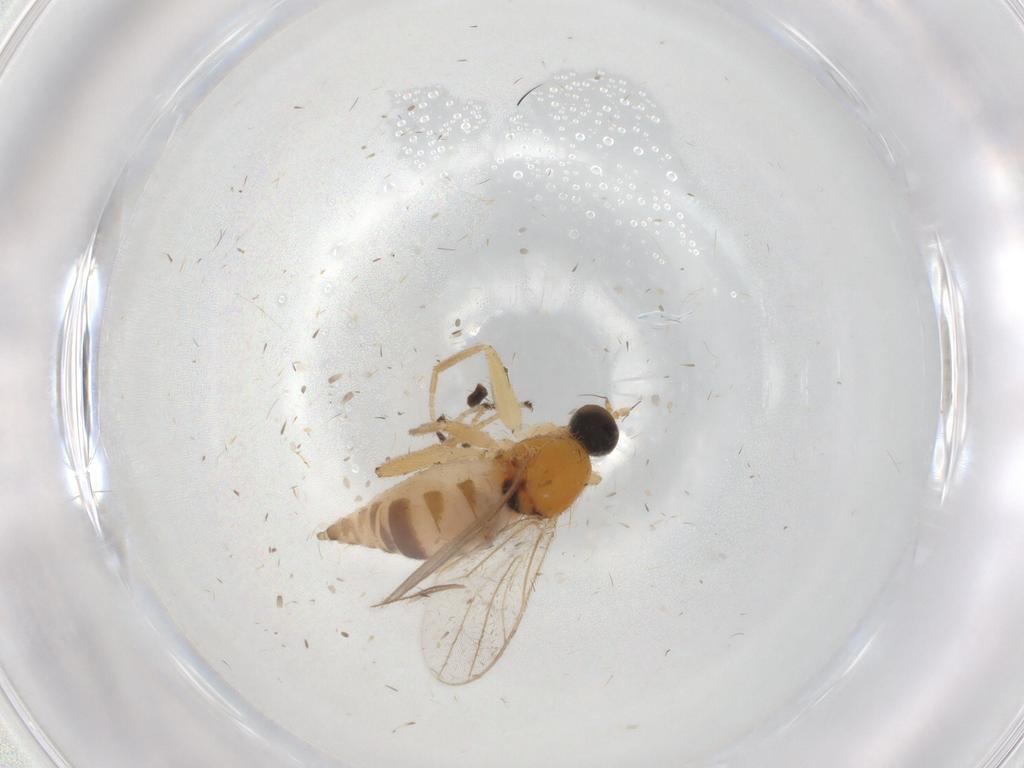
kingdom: Animalia
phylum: Arthropoda
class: Insecta
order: Diptera
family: Hybotidae
